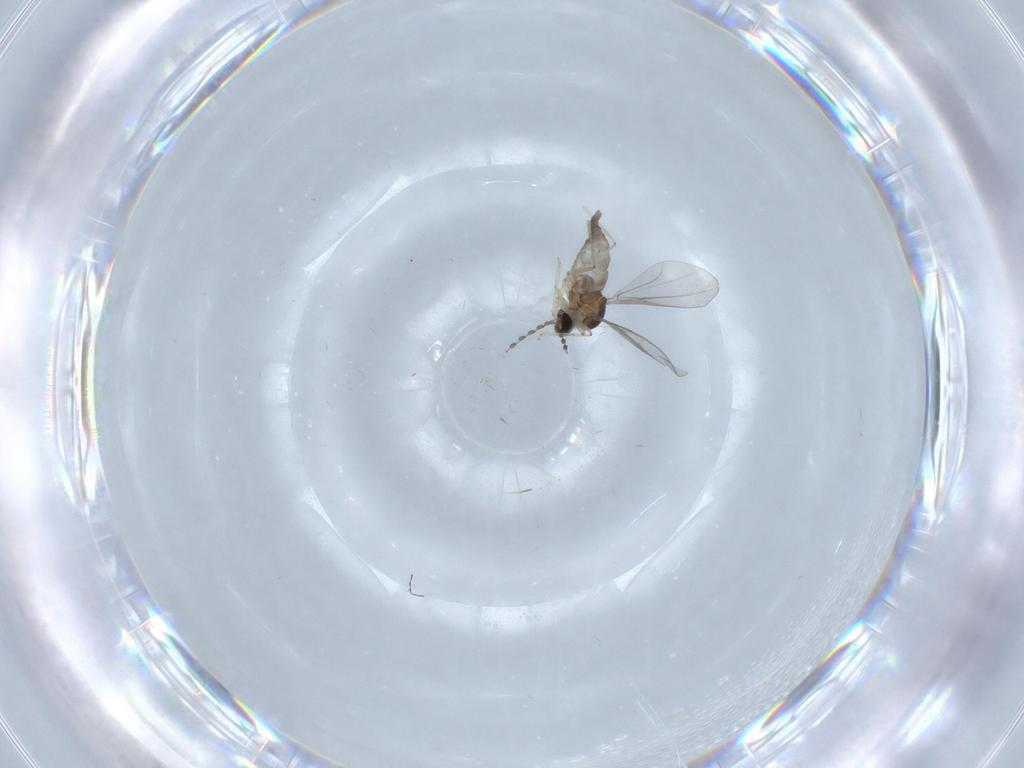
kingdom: Animalia
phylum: Arthropoda
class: Insecta
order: Diptera
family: Cecidomyiidae
